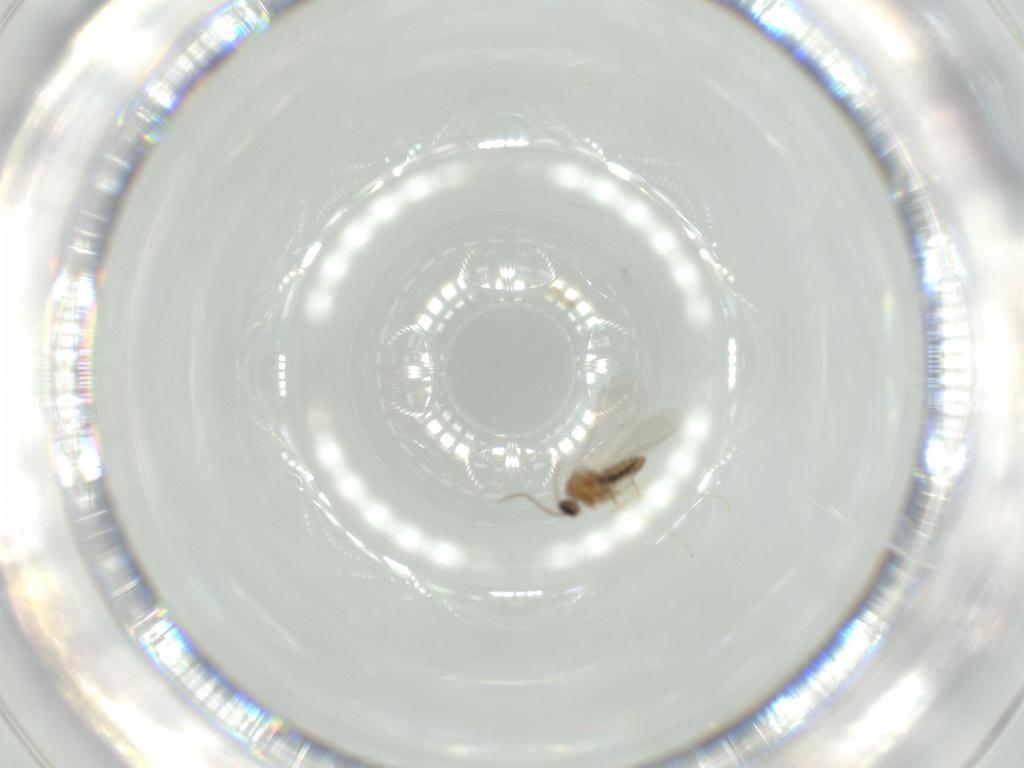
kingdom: Animalia
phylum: Arthropoda
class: Insecta
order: Diptera
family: Cecidomyiidae
